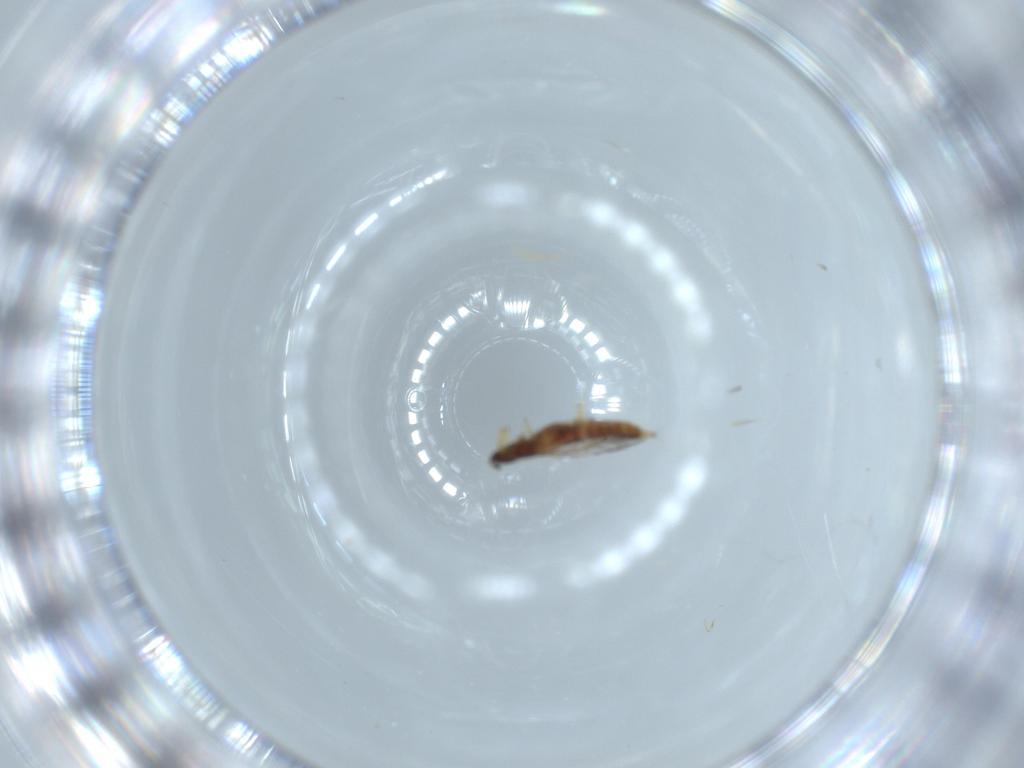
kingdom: Animalia
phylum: Arthropoda
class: Insecta
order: Thysanoptera
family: Phlaeothripidae
